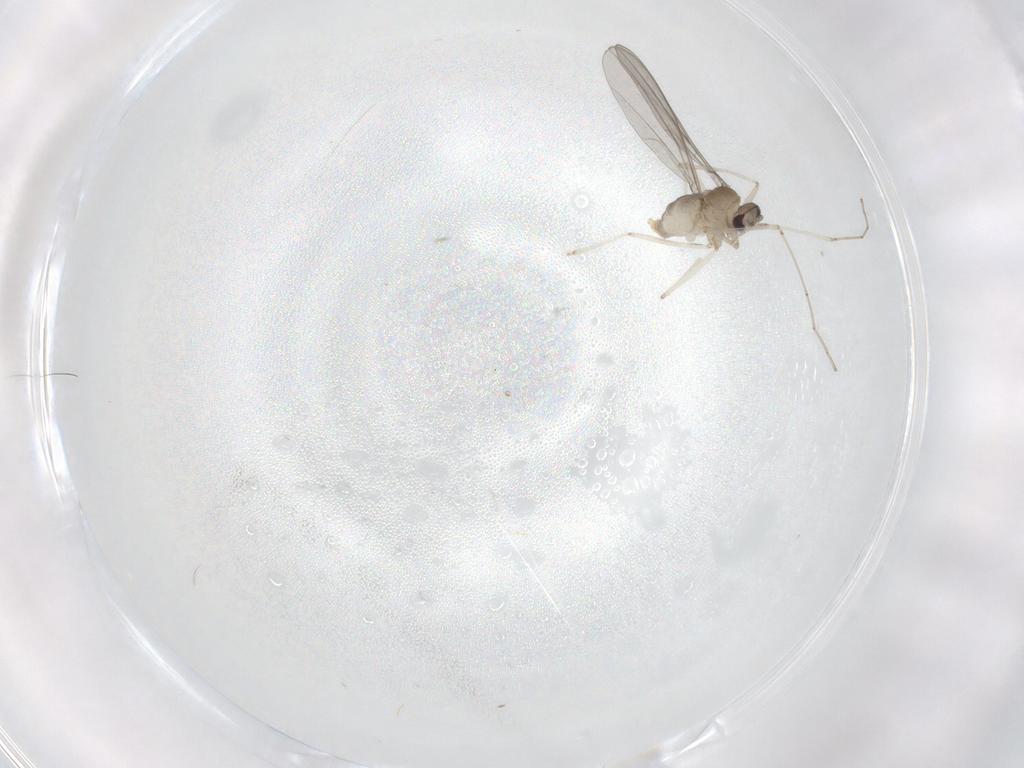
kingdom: Animalia
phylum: Arthropoda
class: Insecta
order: Diptera
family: Cecidomyiidae
